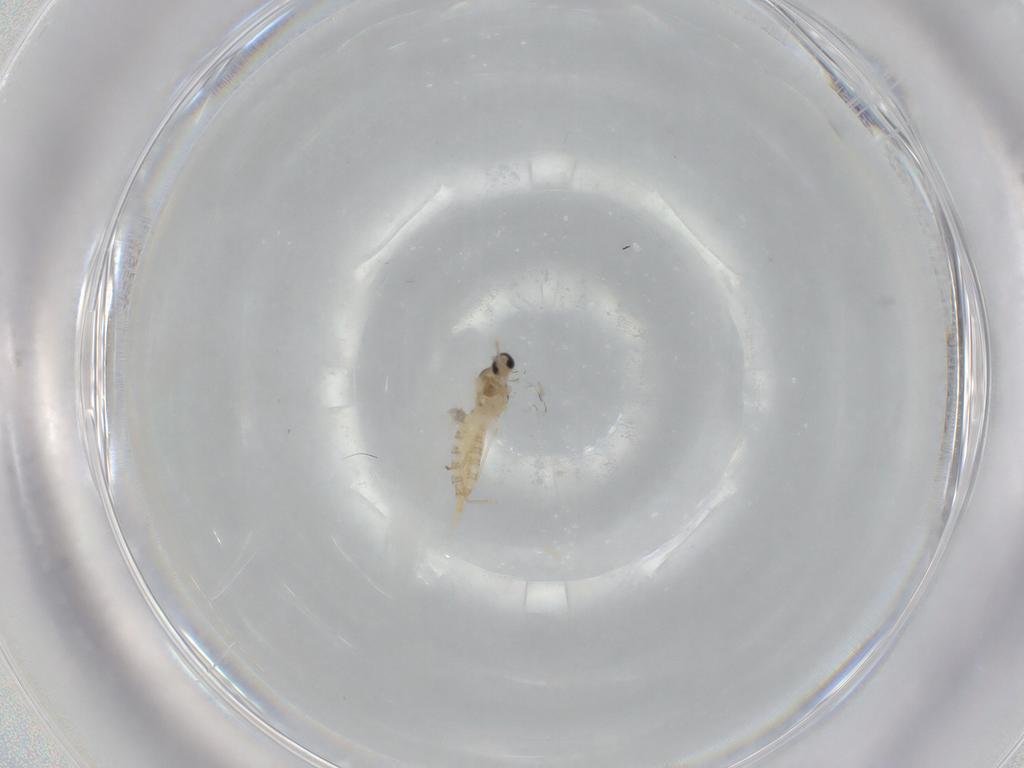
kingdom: Animalia
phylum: Arthropoda
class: Insecta
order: Diptera
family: Cecidomyiidae
